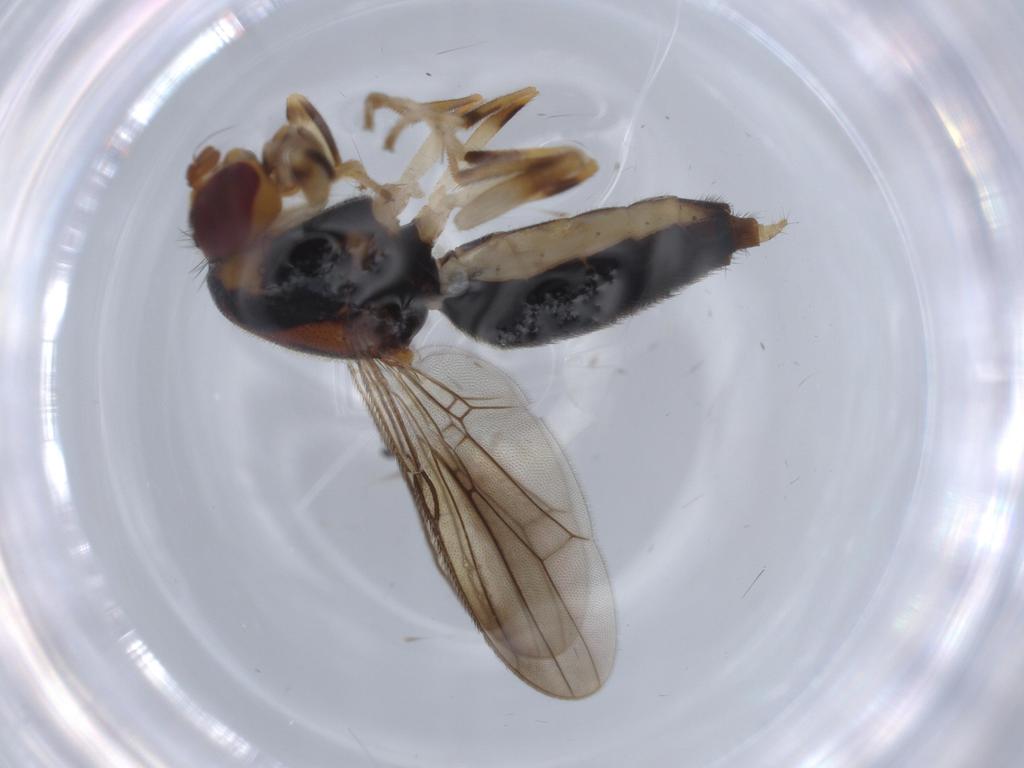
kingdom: Animalia
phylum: Arthropoda
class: Insecta
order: Diptera
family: Psilidae
